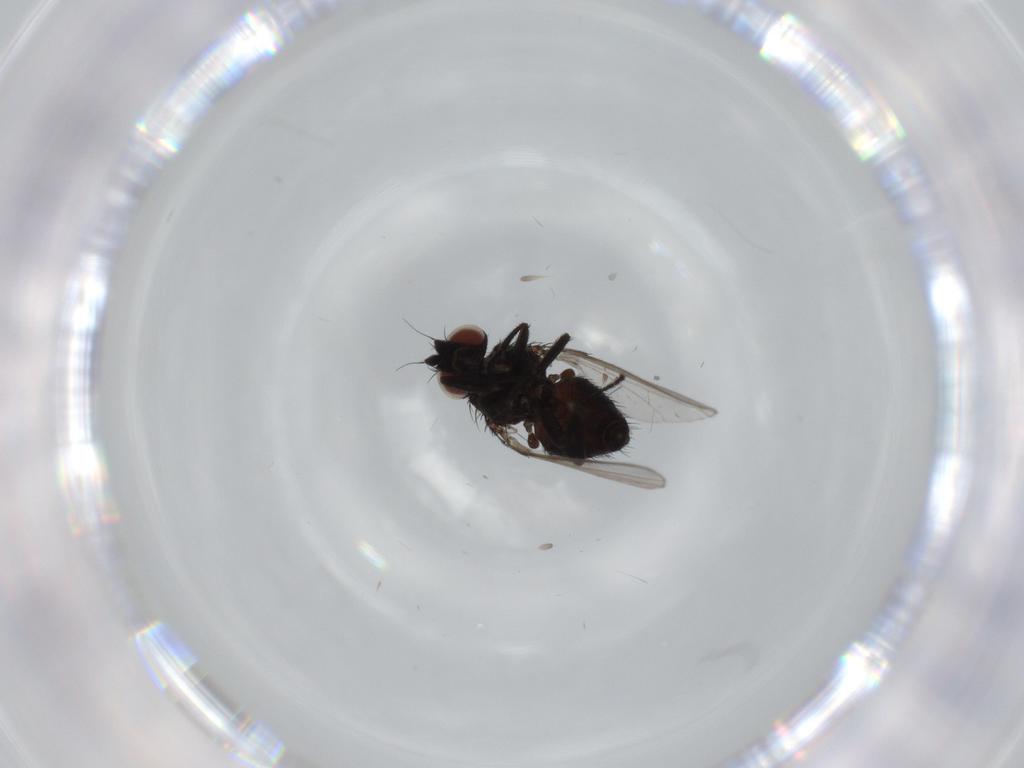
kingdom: Animalia
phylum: Arthropoda
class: Insecta
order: Diptera
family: Milichiidae
